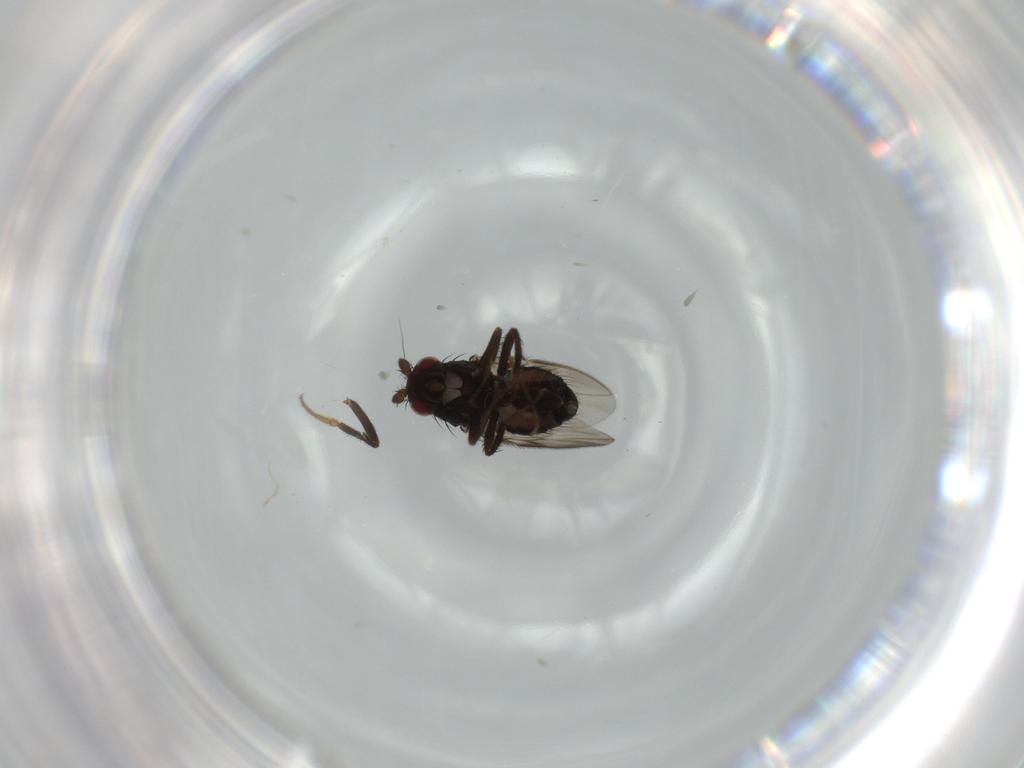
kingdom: Animalia
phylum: Arthropoda
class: Insecta
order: Diptera
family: Sphaeroceridae
